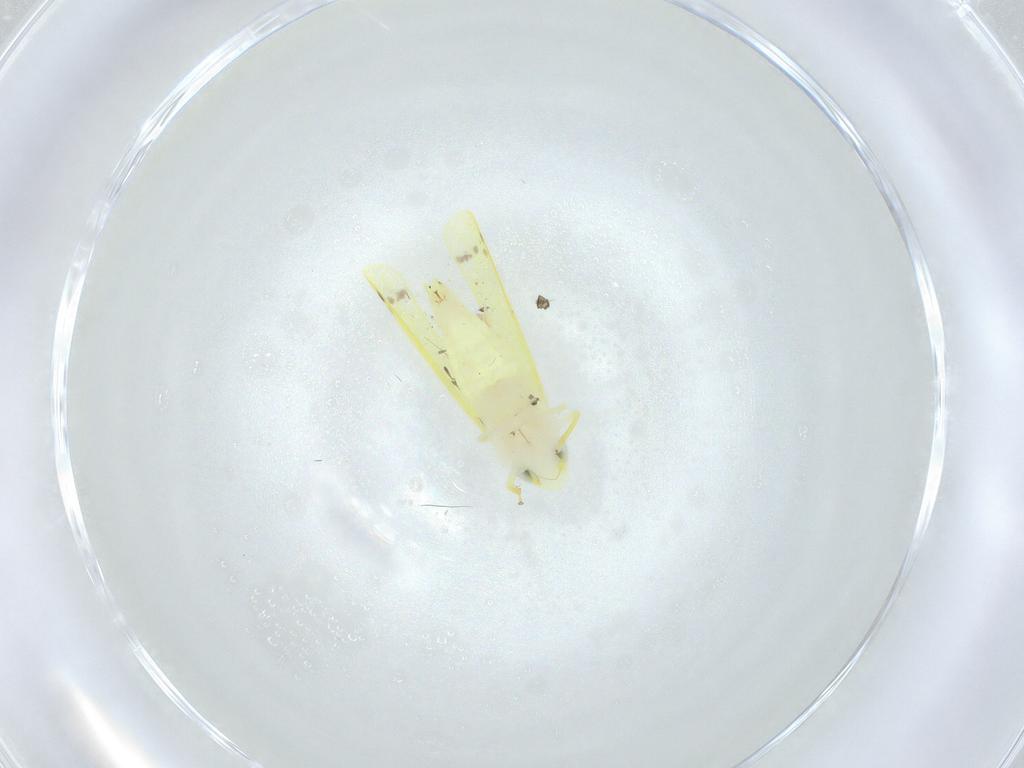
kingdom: Animalia
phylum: Arthropoda
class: Insecta
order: Hemiptera
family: Cicadellidae
